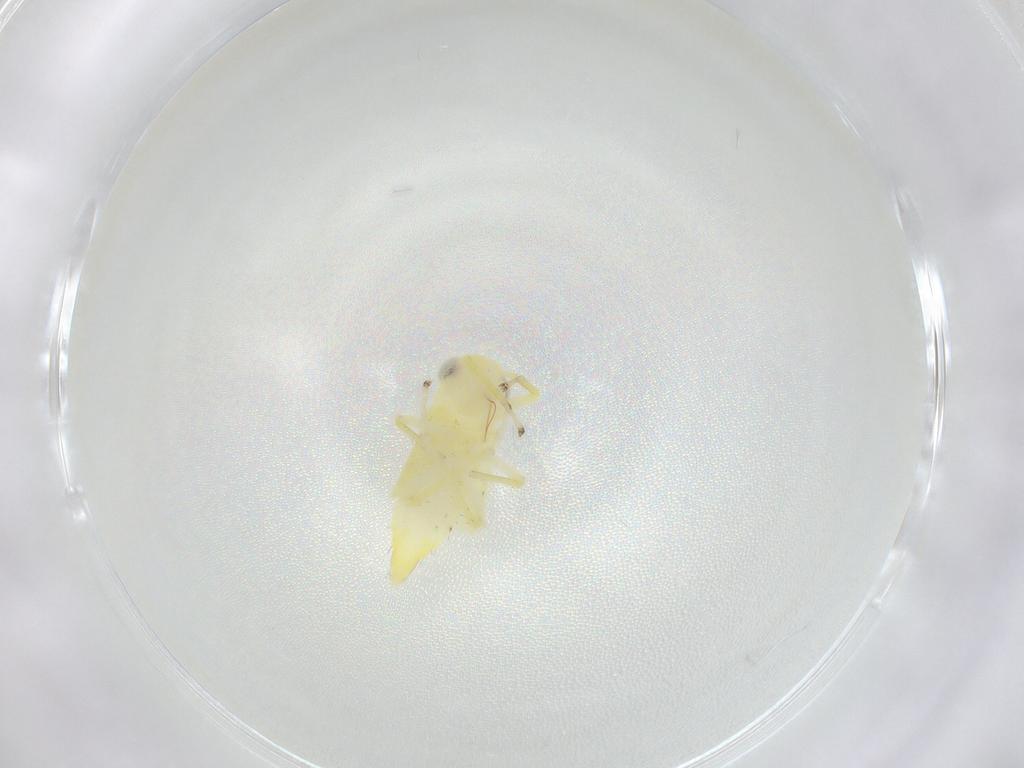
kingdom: Animalia
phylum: Arthropoda
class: Insecta
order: Hemiptera
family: Cicadellidae
